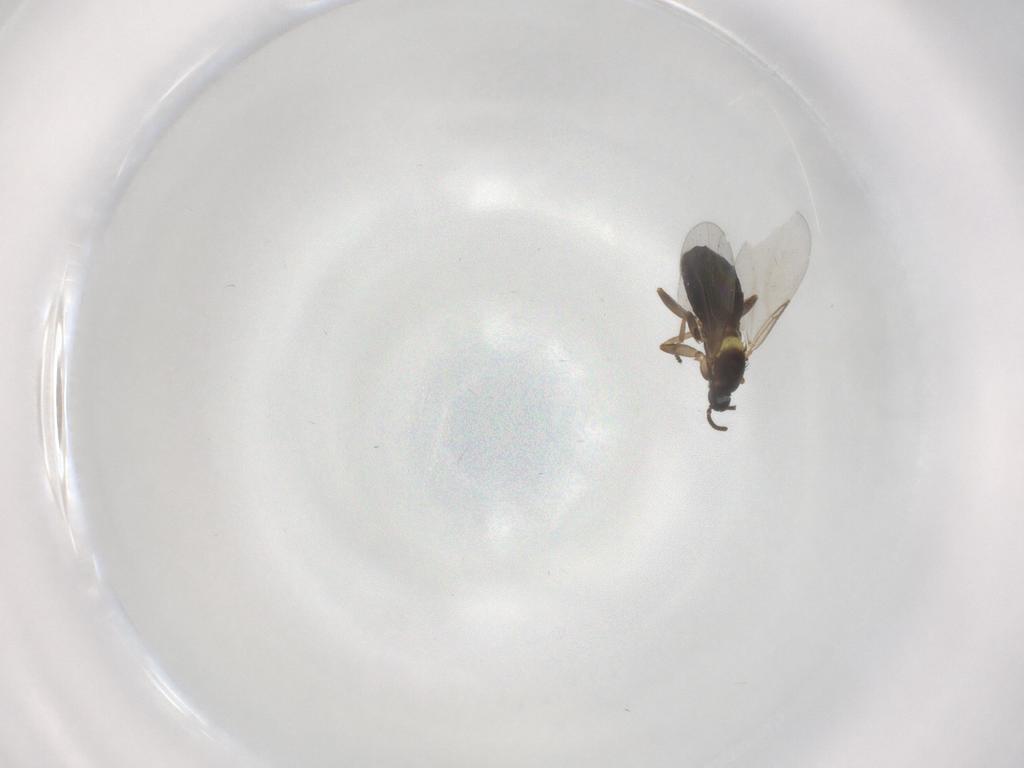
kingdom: Animalia
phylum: Arthropoda
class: Insecta
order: Diptera
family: Scatopsidae
